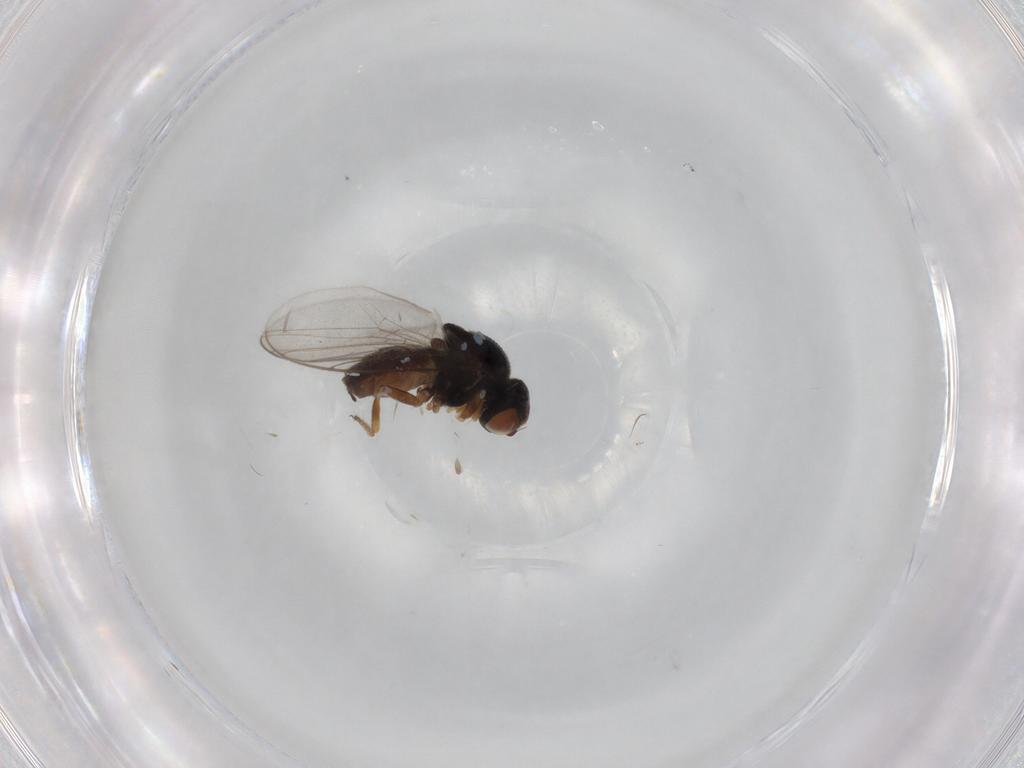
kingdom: Animalia
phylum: Arthropoda
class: Insecta
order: Diptera
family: Chloropidae
